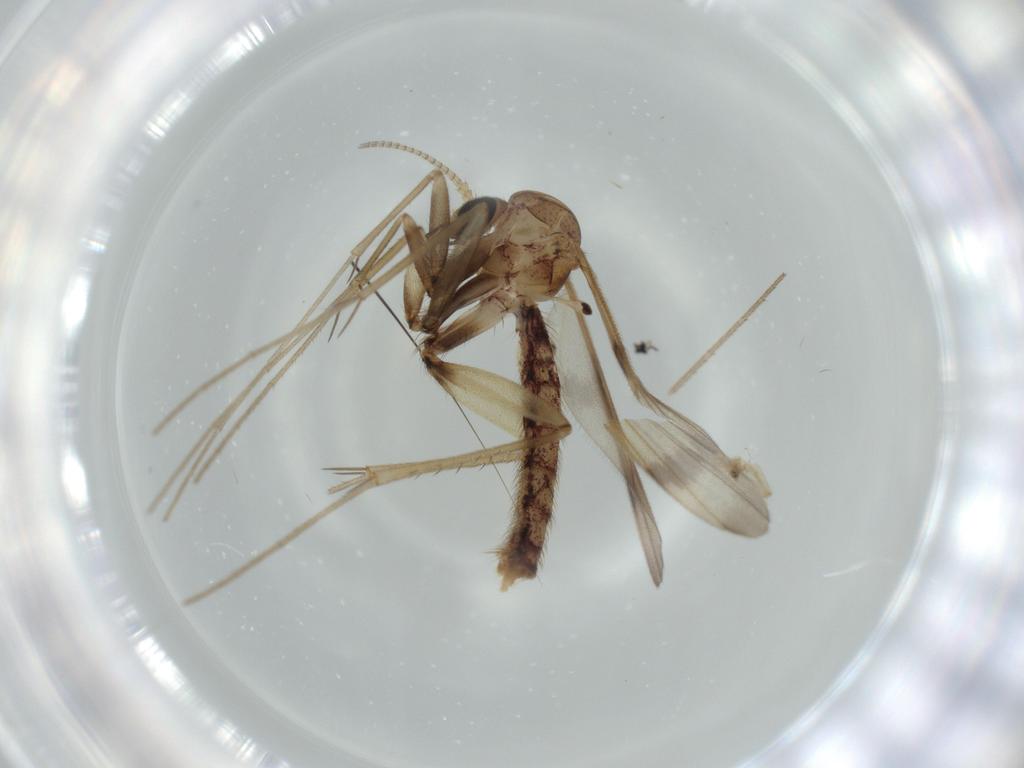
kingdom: Animalia
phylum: Arthropoda
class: Insecta
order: Diptera
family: Mycetophilidae
